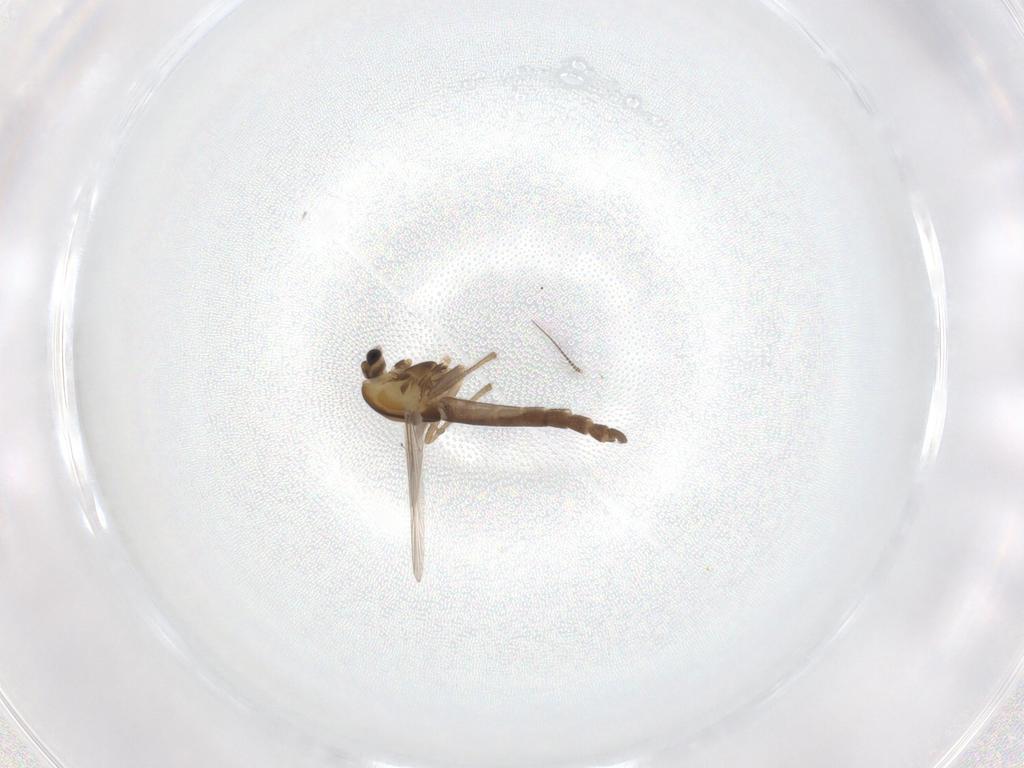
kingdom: Animalia
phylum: Arthropoda
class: Insecta
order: Diptera
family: Chironomidae
